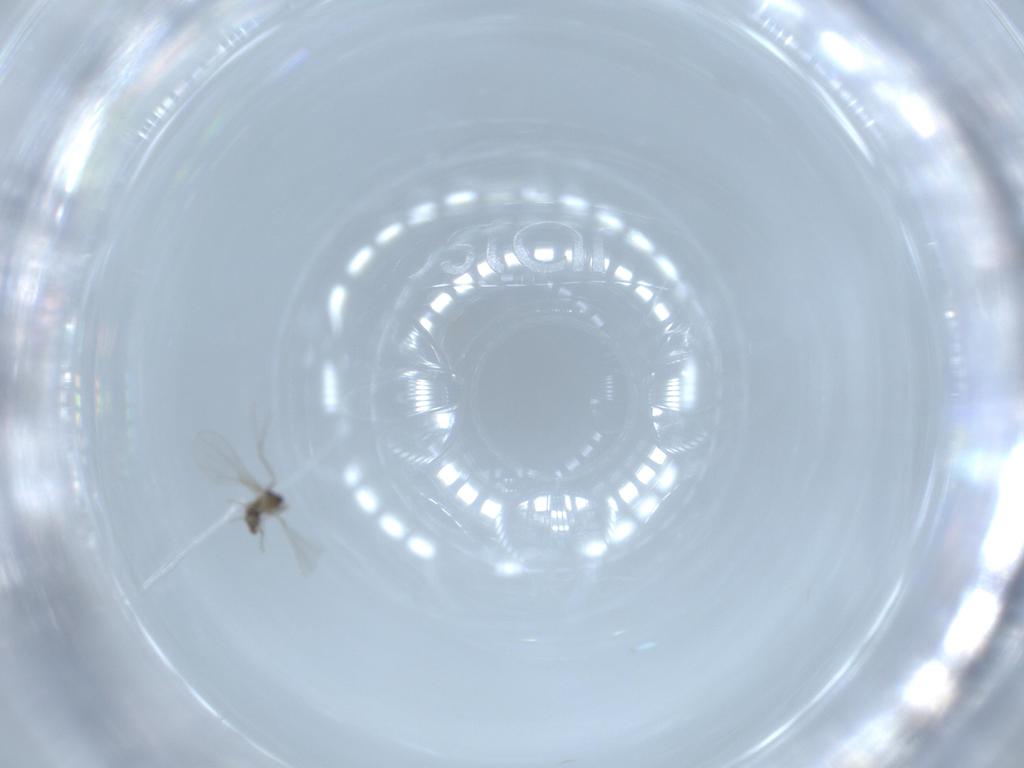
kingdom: Animalia
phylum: Arthropoda
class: Insecta
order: Diptera
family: Cecidomyiidae
